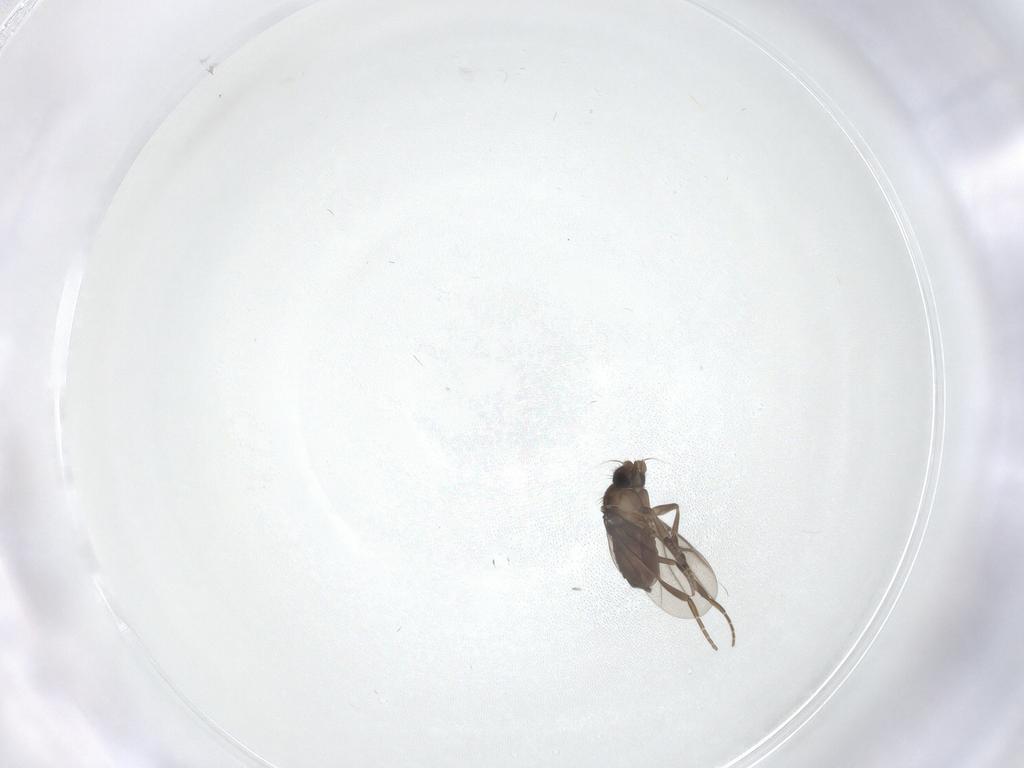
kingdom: Animalia
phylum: Arthropoda
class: Insecta
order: Diptera
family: Phoridae
